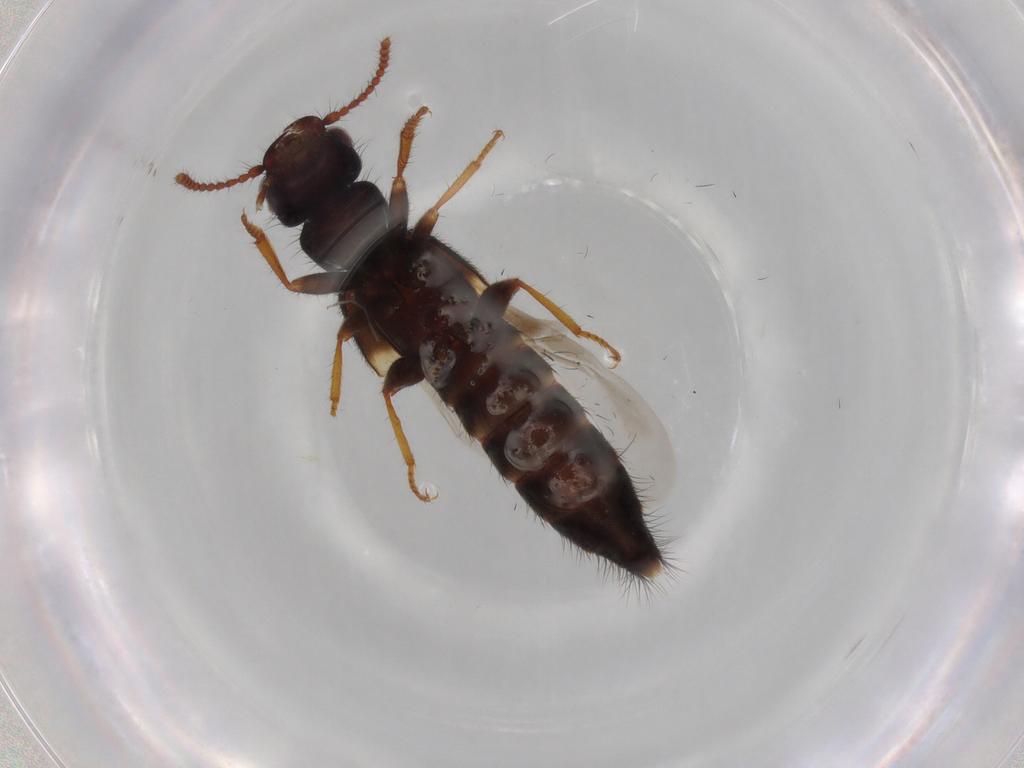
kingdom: Animalia
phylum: Arthropoda
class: Insecta
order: Coleoptera
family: Staphylinidae
